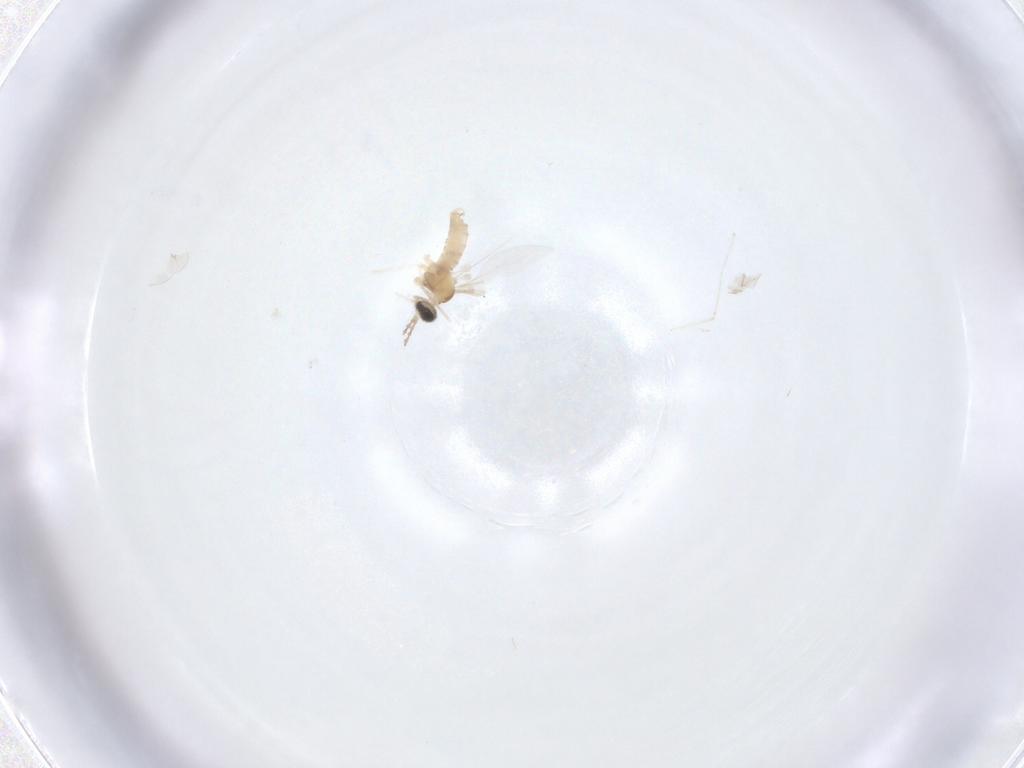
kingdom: Animalia
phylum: Arthropoda
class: Insecta
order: Diptera
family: Cecidomyiidae
